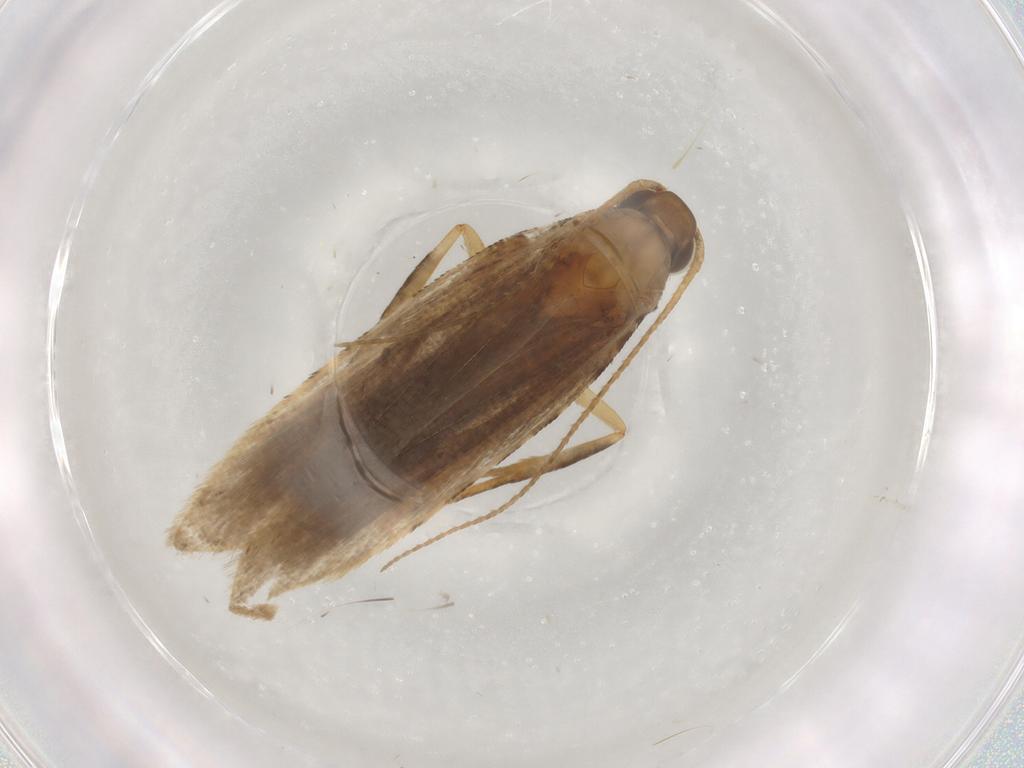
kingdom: Animalia
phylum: Arthropoda
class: Insecta
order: Lepidoptera
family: Gelechiidae
